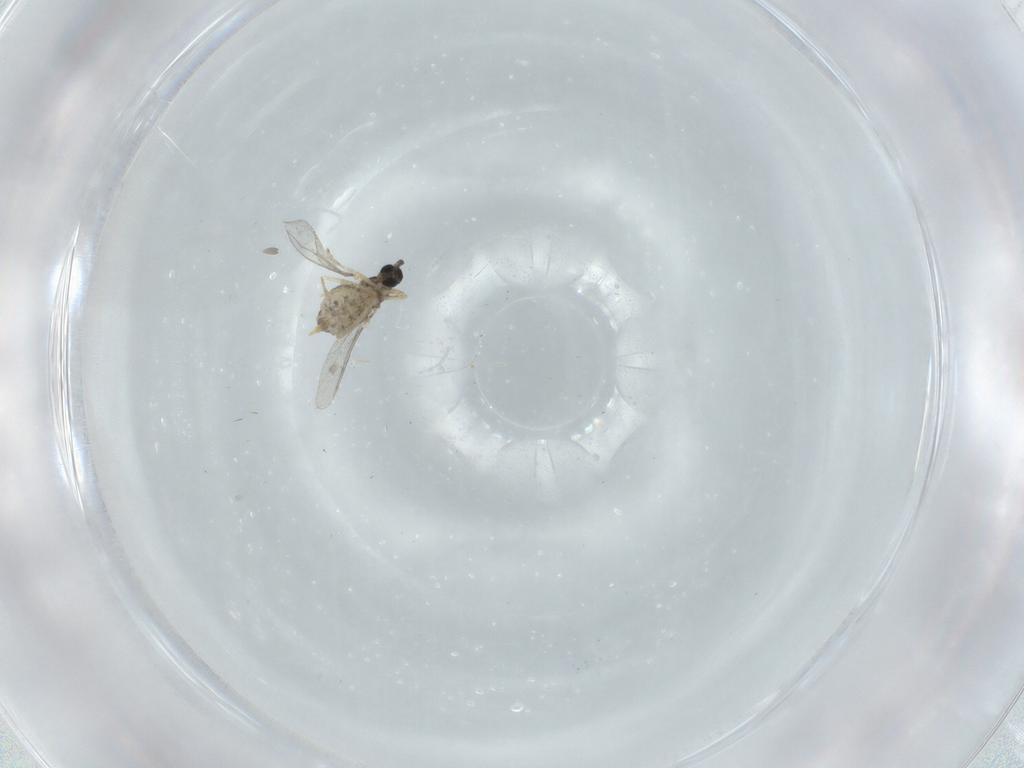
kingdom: Animalia
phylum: Arthropoda
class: Insecta
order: Diptera
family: Cecidomyiidae
